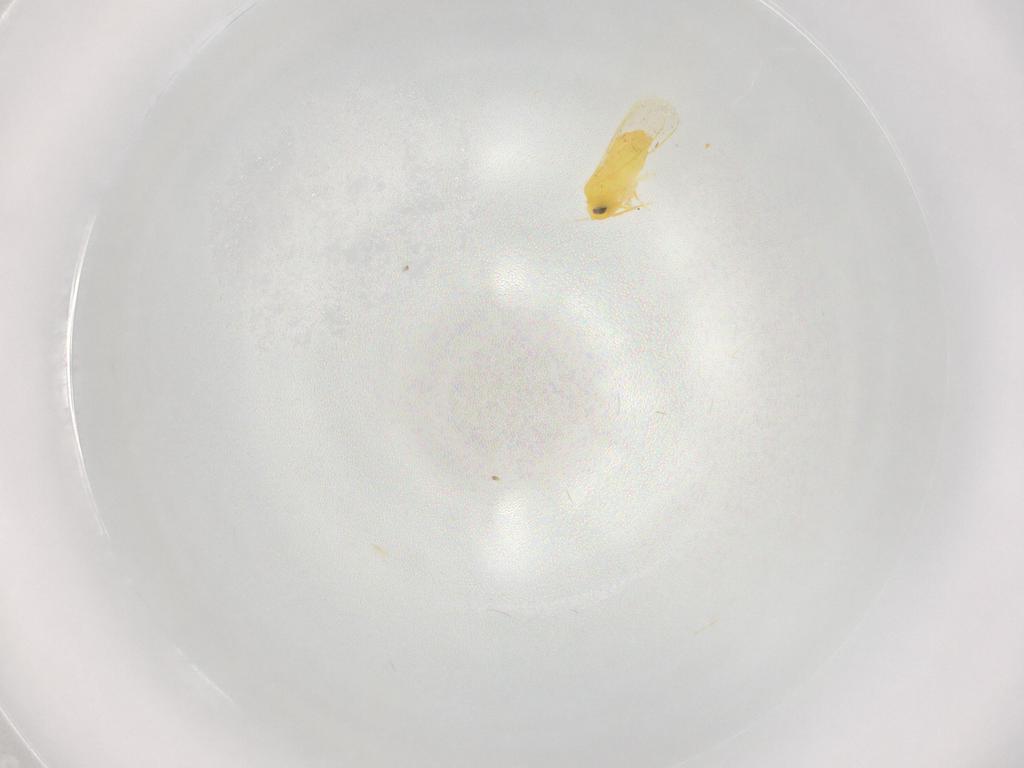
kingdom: Animalia
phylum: Arthropoda
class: Insecta
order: Hemiptera
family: Aleyrodidae
